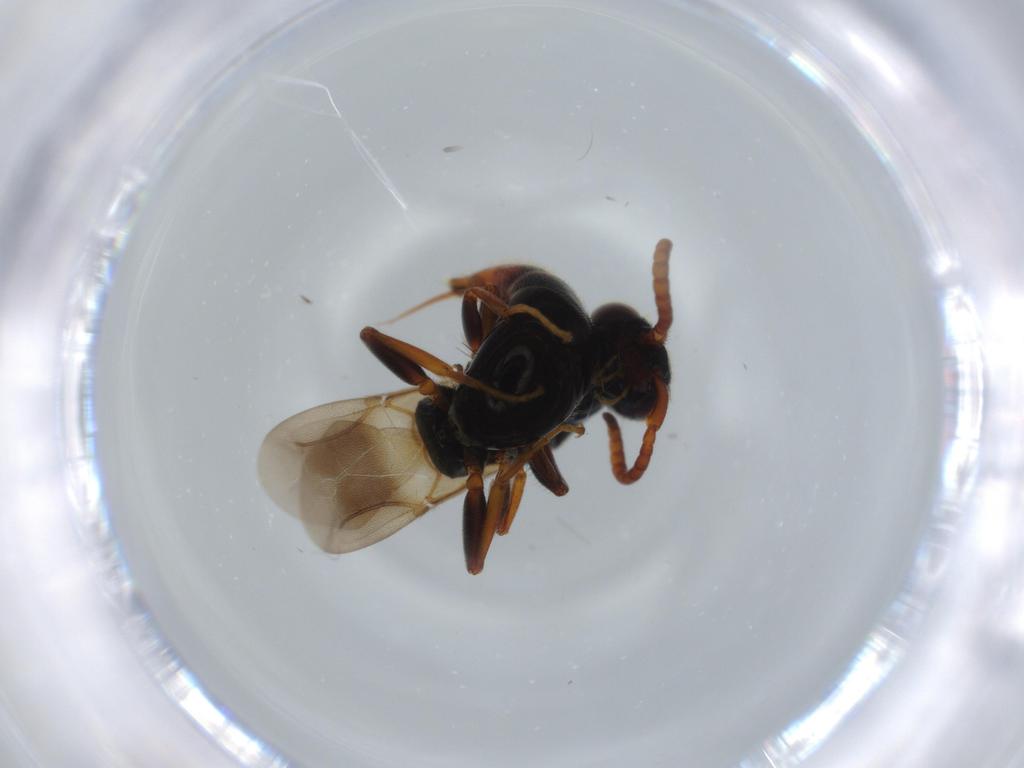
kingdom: Animalia
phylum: Arthropoda
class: Insecta
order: Hymenoptera
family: Bethylidae
